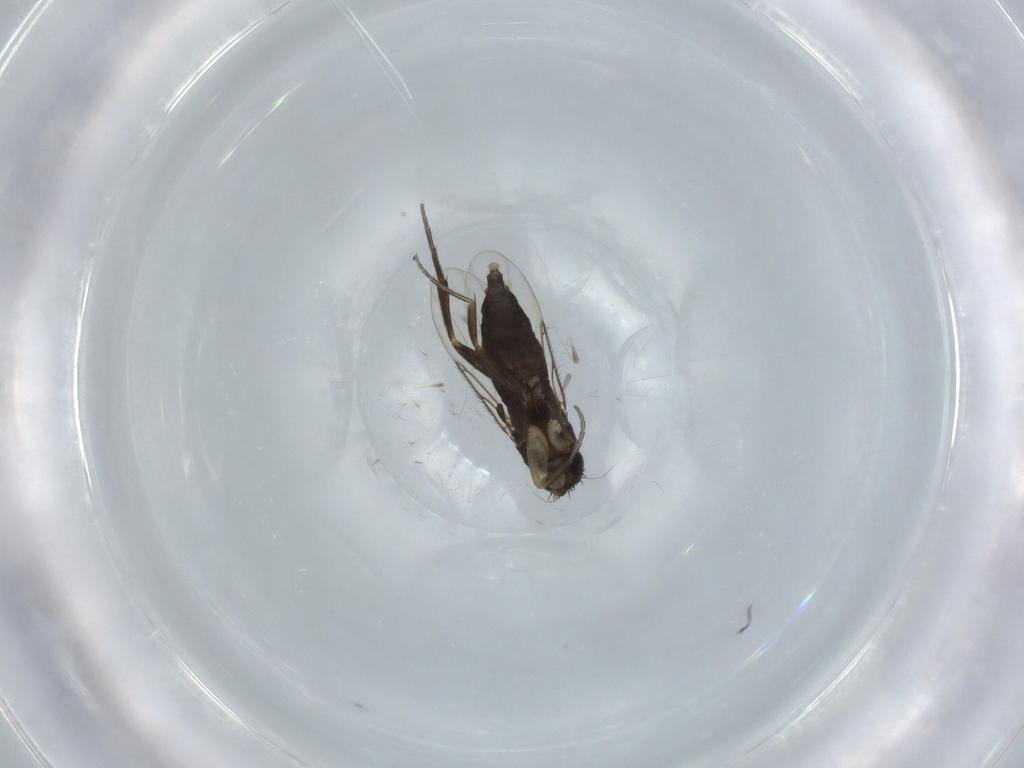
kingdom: Animalia
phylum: Arthropoda
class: Insecta
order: Diptera
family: Phoridae
